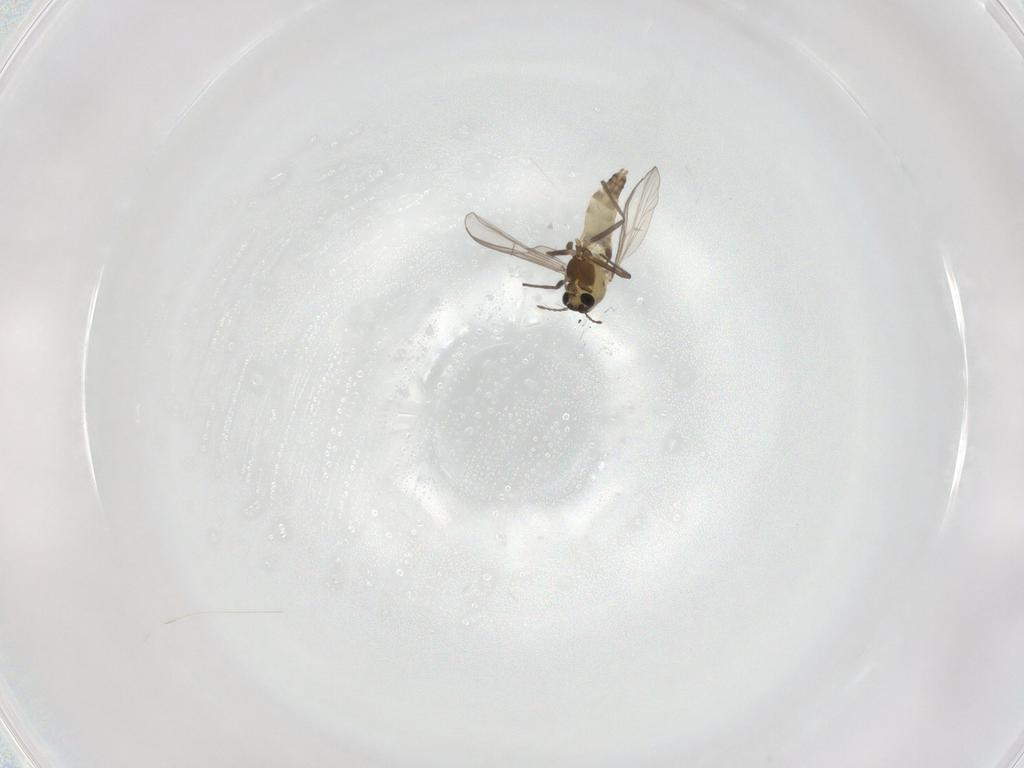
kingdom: Animalia
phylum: Arthropoda
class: Insecta
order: Diptera
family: Chironomidae
